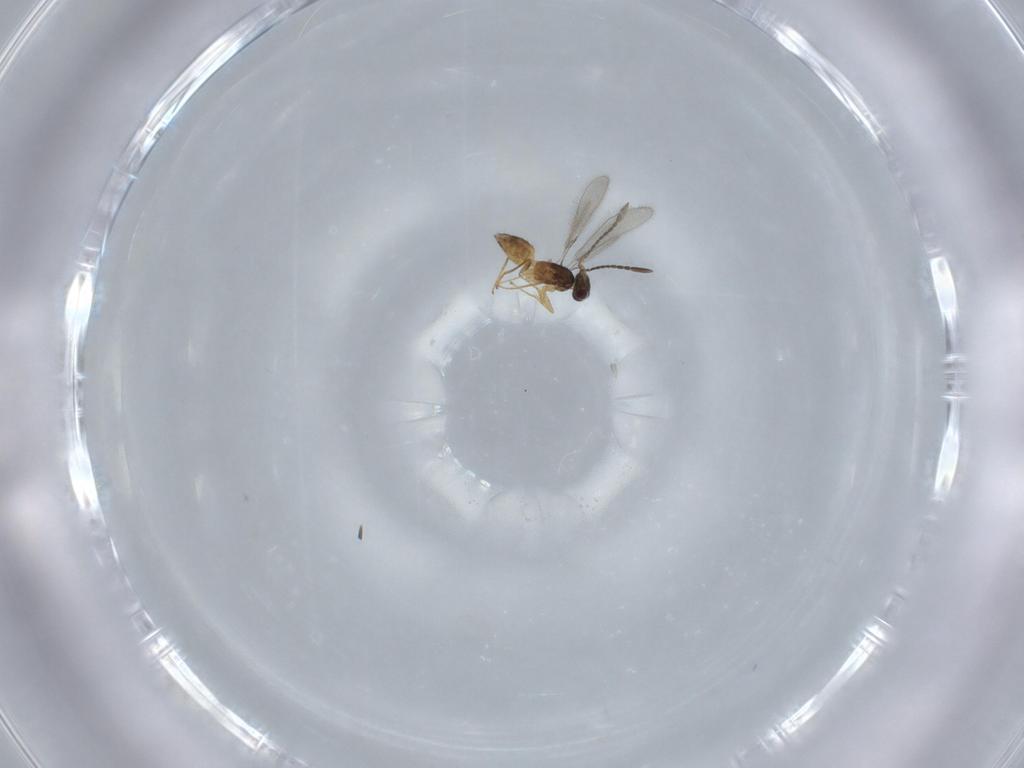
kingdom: Animalia
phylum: Arthropoda
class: Insecta
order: Hymenoptera
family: Mymaridae
